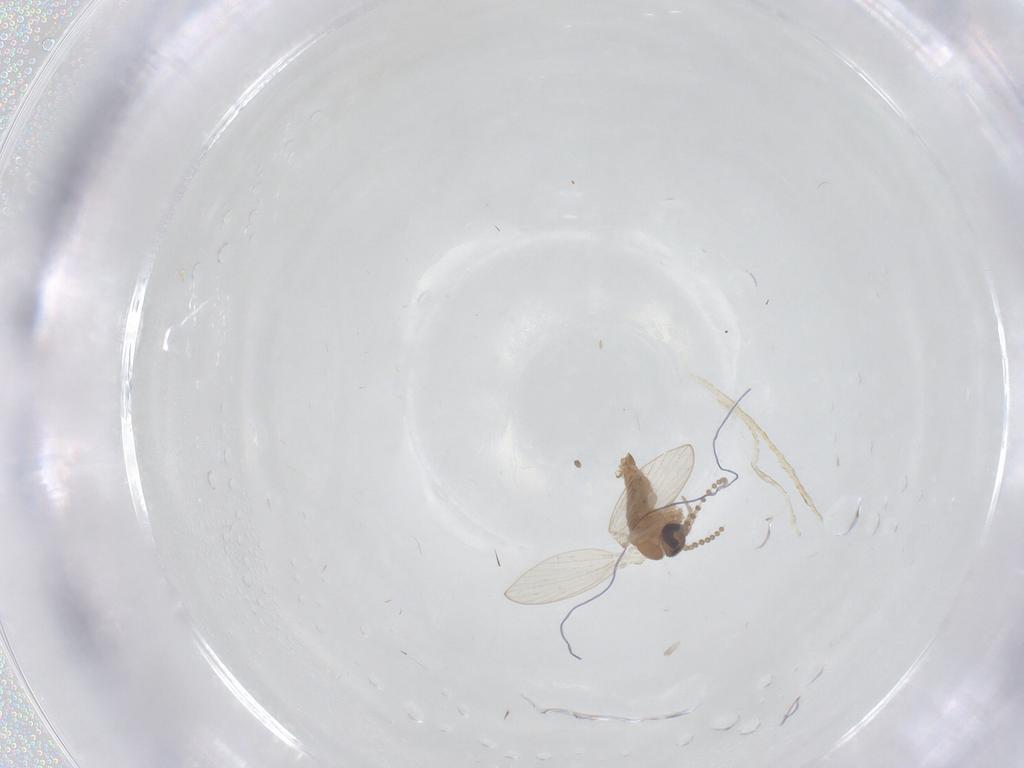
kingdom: Animalia
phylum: Arthropoda
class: Insecta
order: Diptera
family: Psychodidae
